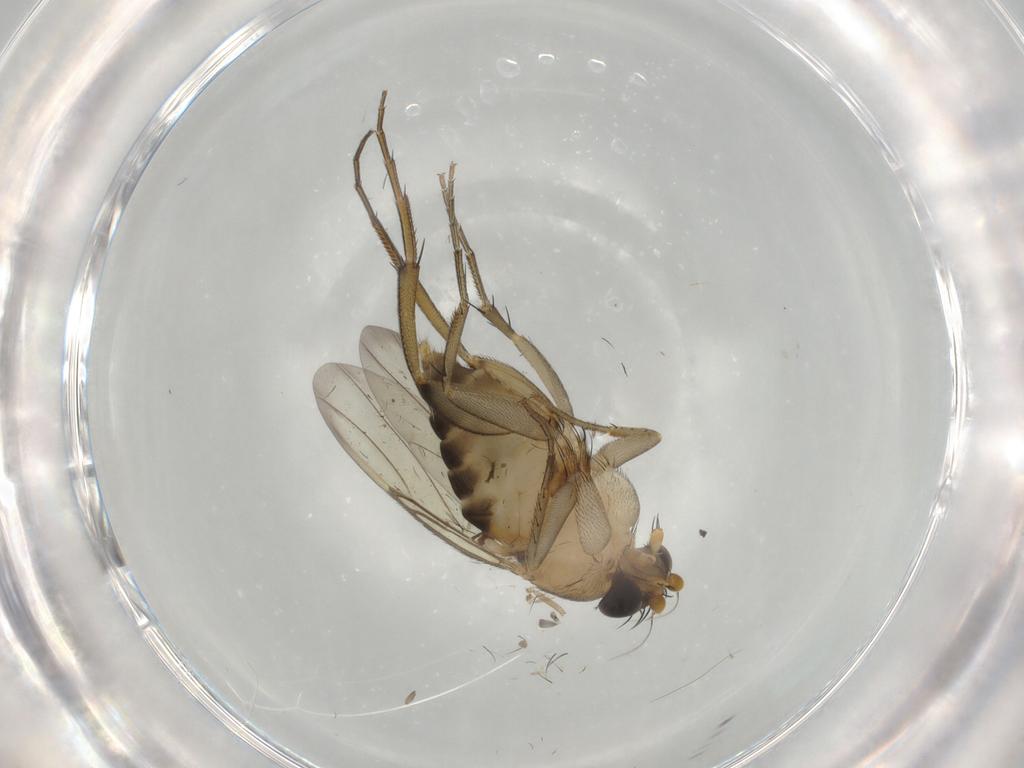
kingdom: Animalia
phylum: Arthropoda
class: Insecta
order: Diptera
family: Phoridae
